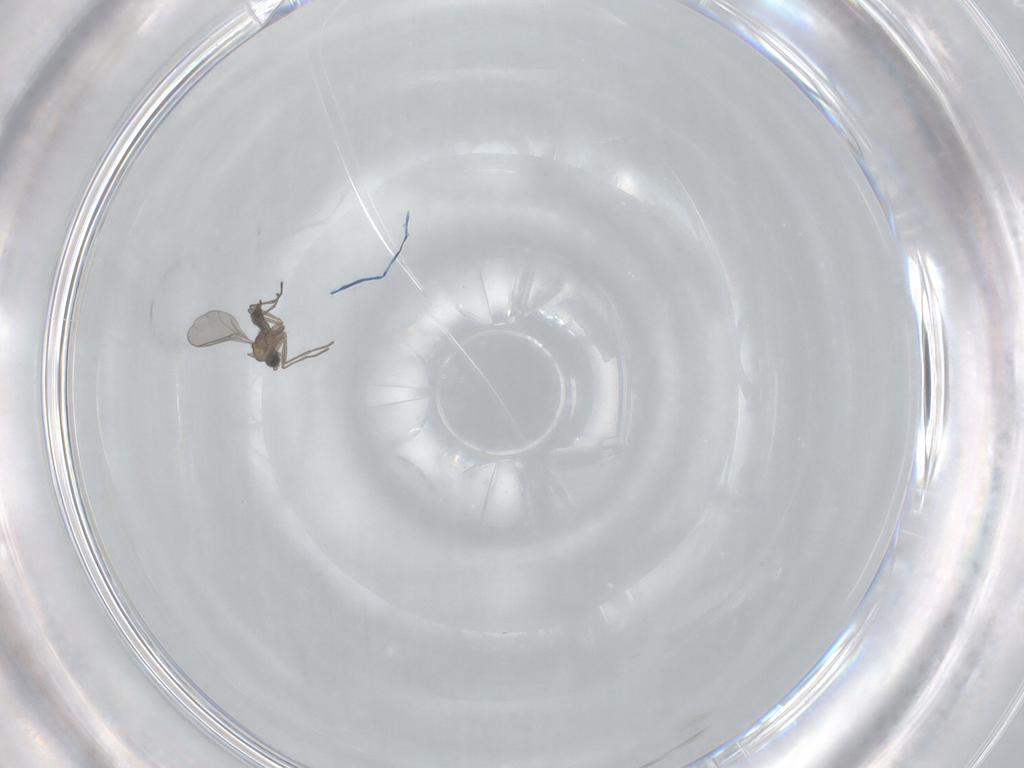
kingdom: Animalia
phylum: Arthropoda
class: Insecta
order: Diptera
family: Sciaridae
